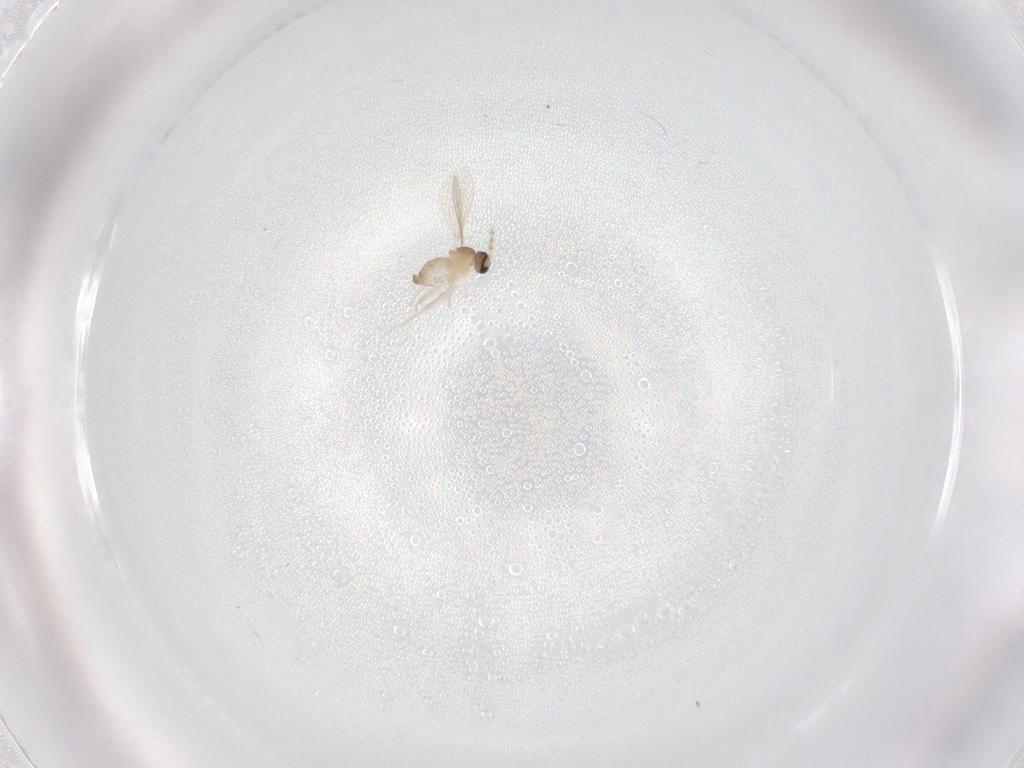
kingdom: Animalia
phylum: Arthropoda
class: Insecta
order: Diptera
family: Cecidomyiidae
